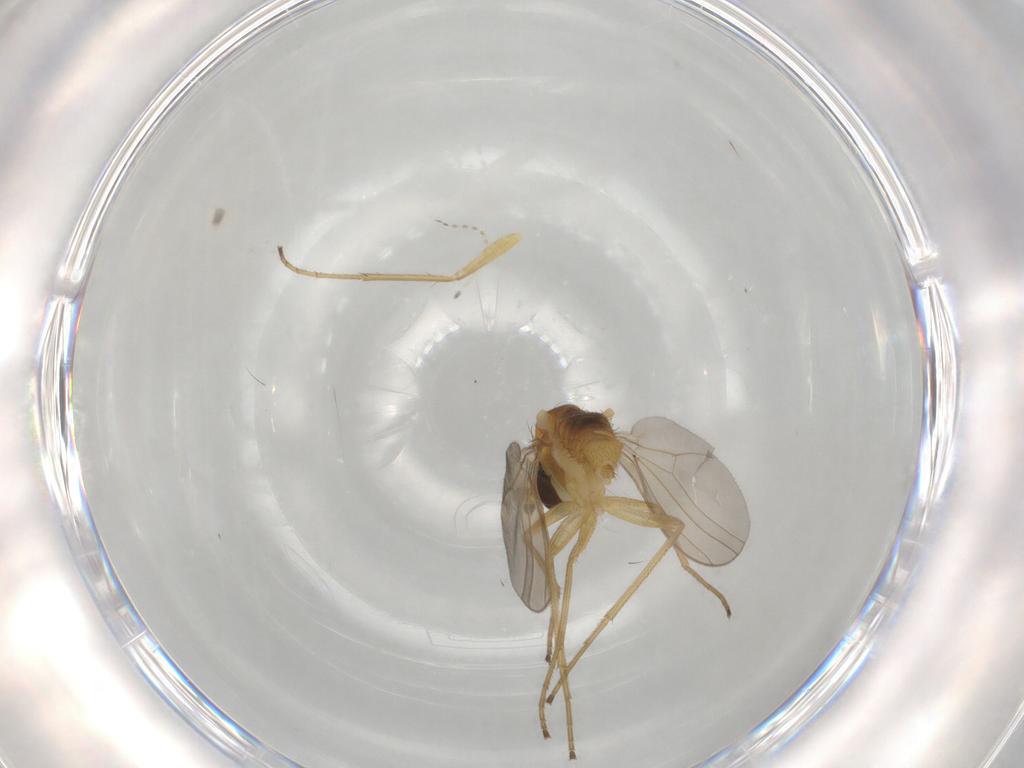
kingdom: Animalia
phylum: Arthropoda
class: Insecta
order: Diptera
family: Dolichopodidae
